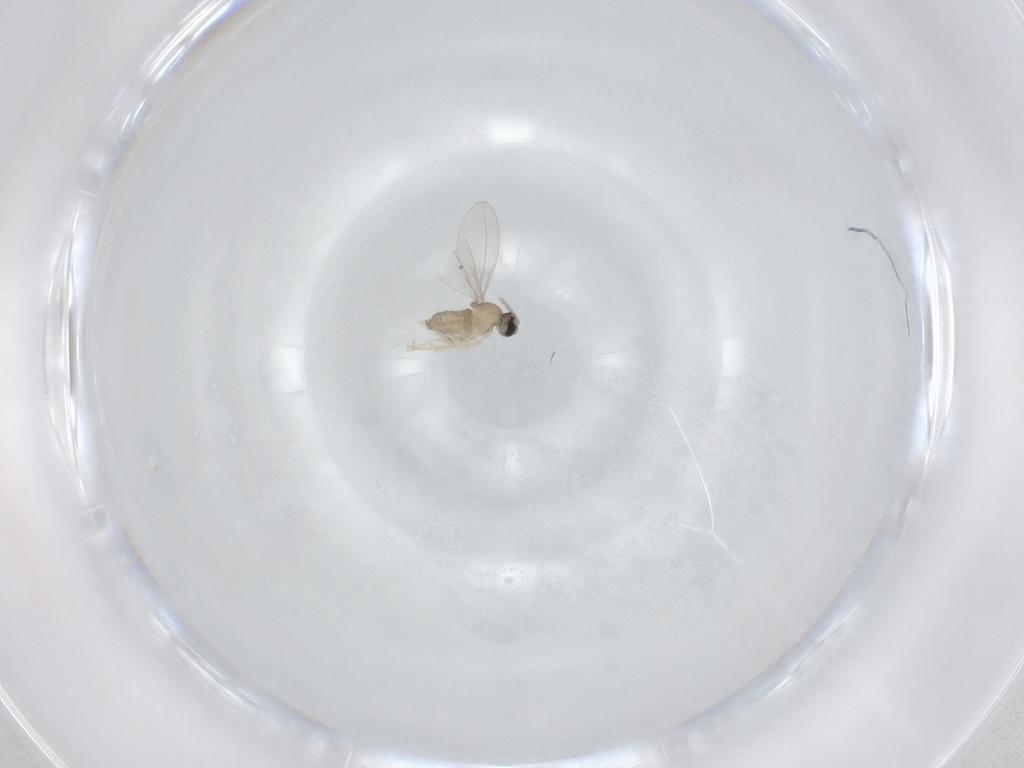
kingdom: Animalia
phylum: Arthropoda
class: Insecta
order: Diptera
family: Cecidomyiidae
